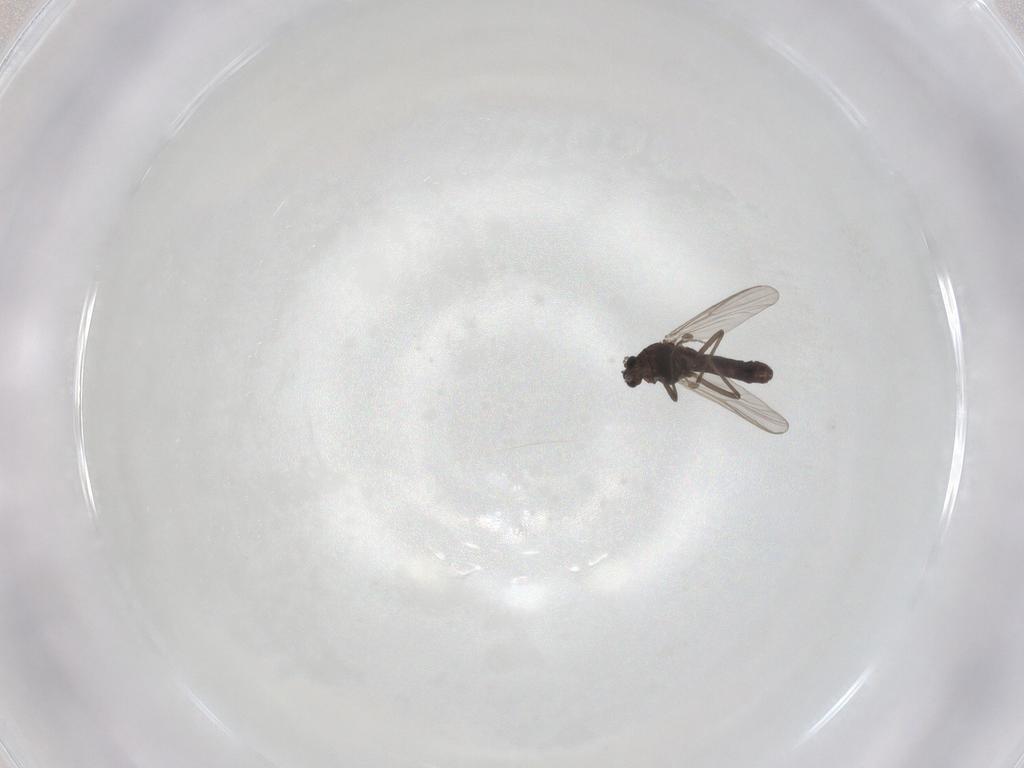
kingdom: Animalia
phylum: Arthropoda
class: Insecta
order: Diptera
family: Chironomidae
